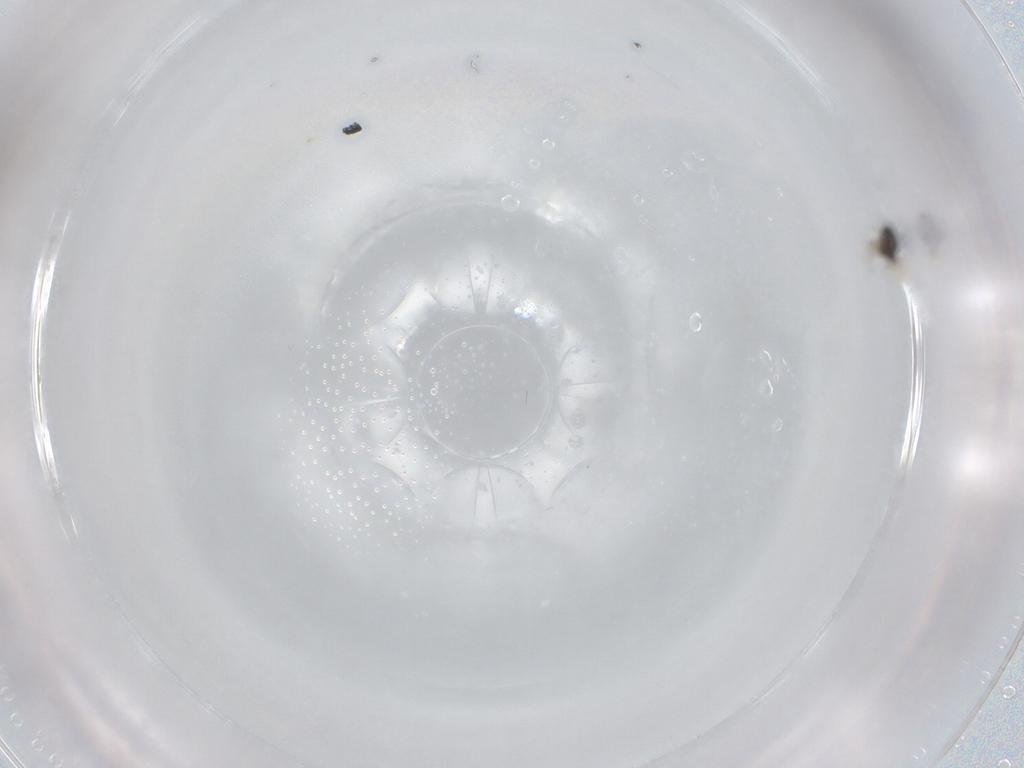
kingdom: Animalia
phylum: Arthropoda
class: Insecta
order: Hymenoptera
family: Scelionidae
